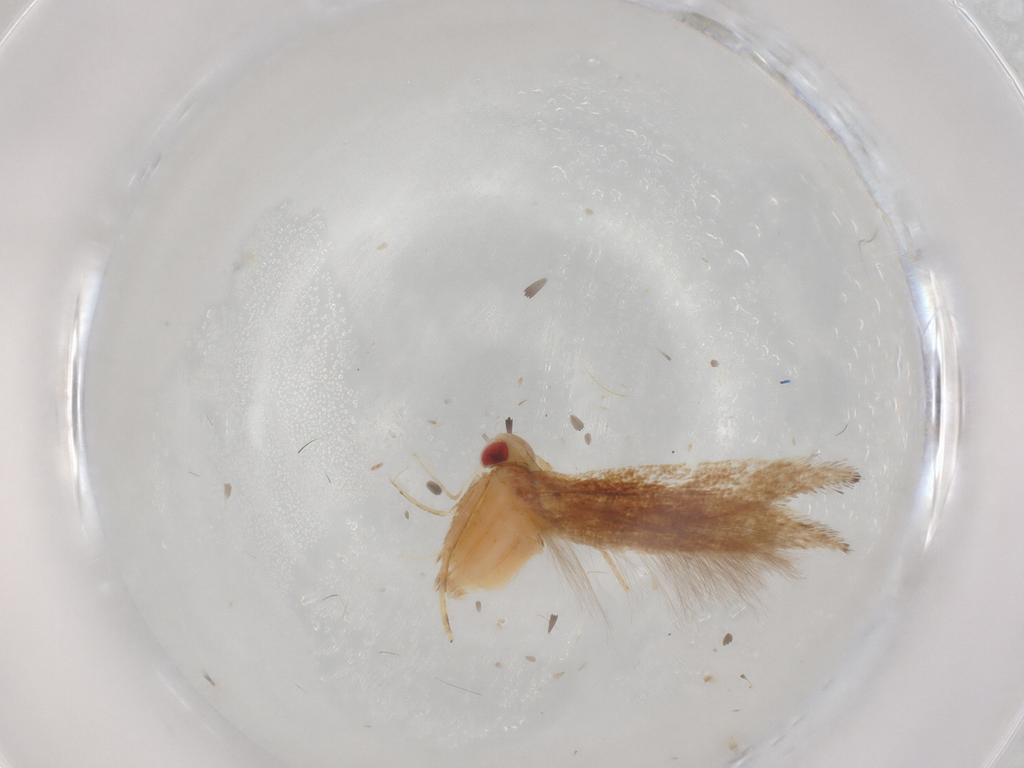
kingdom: Animalia
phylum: Arthropoda
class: Insecta
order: Lepidoptera
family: Cosmopterigidae
